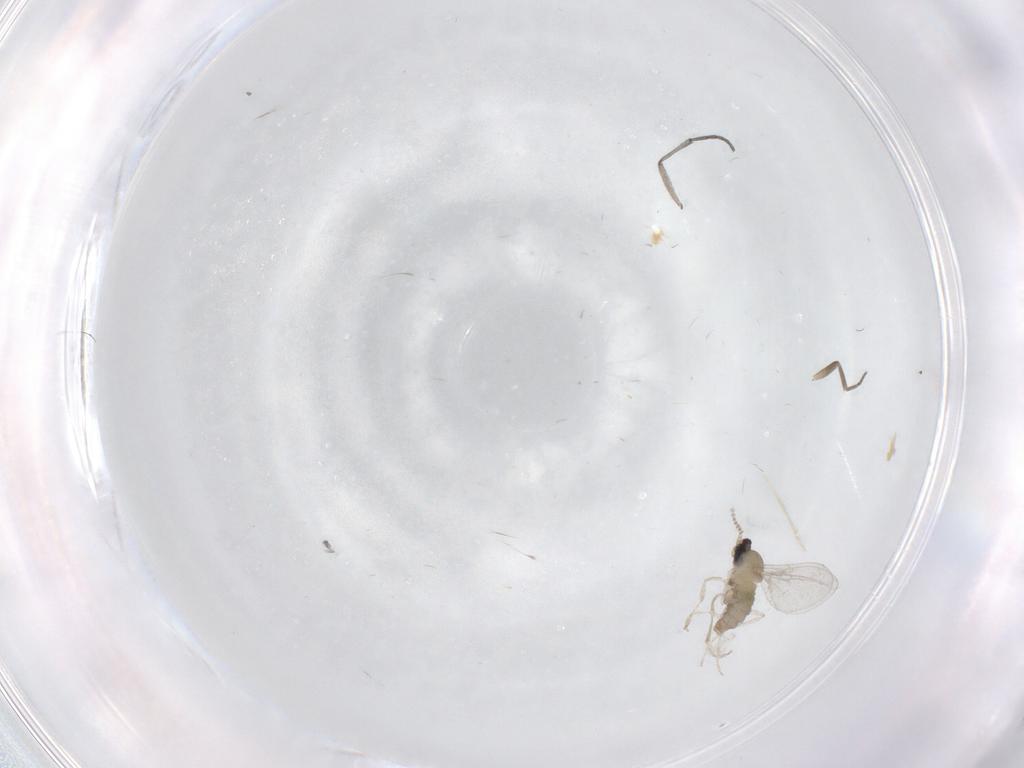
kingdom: Animalia
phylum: Arthropoda
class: Insecta
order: Diptera
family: Cecidomyiidae
